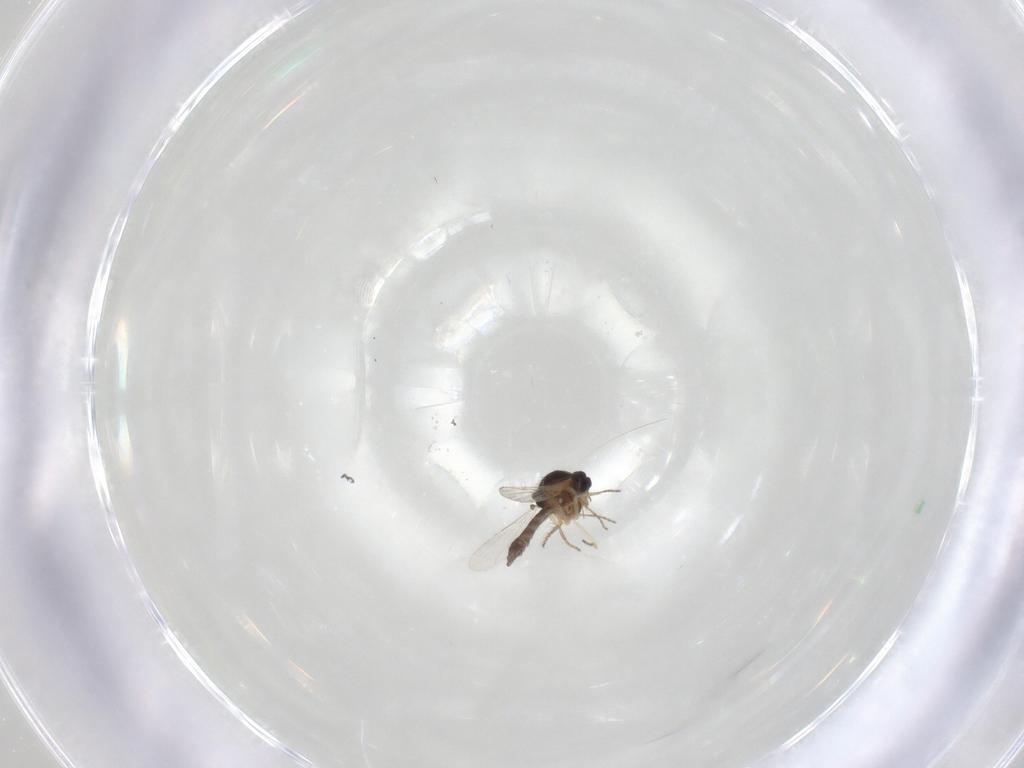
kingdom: Animalia
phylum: Arthropoda
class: Insecta
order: Diptera
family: Ceratopogonidae
